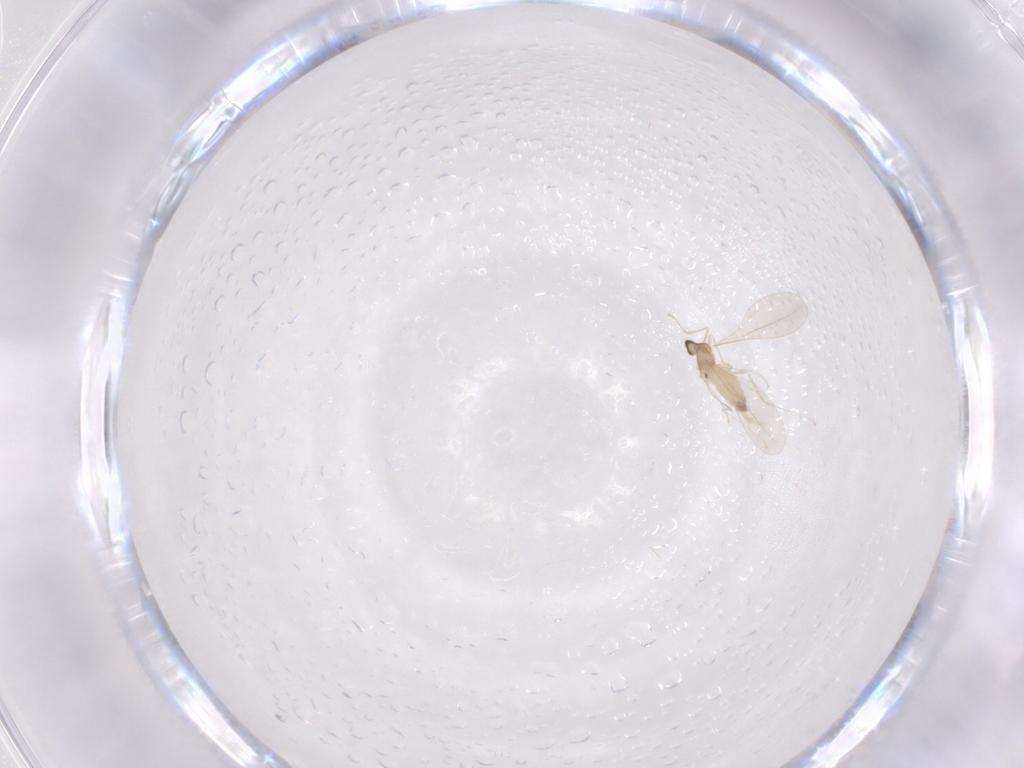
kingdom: Animalia
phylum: Arthropoda
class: Insecta
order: Diptera
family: Cecidomyiidae
